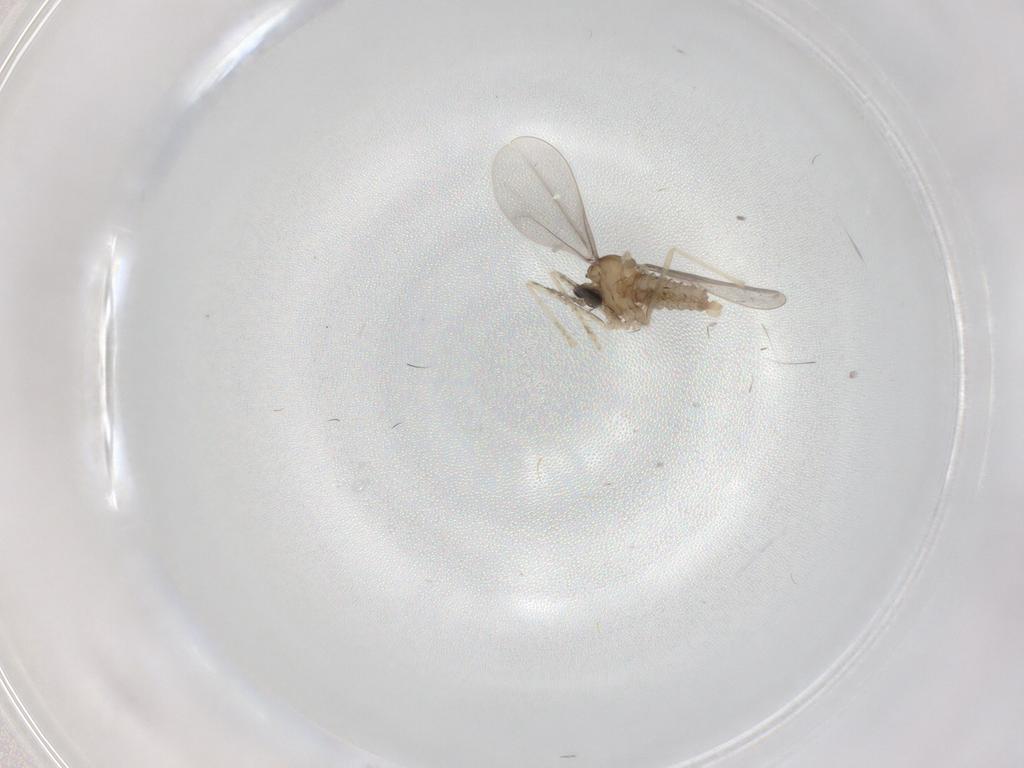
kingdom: Animalia
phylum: Arthropoda
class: Insecta
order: Diptera
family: Cecidomyiidae
